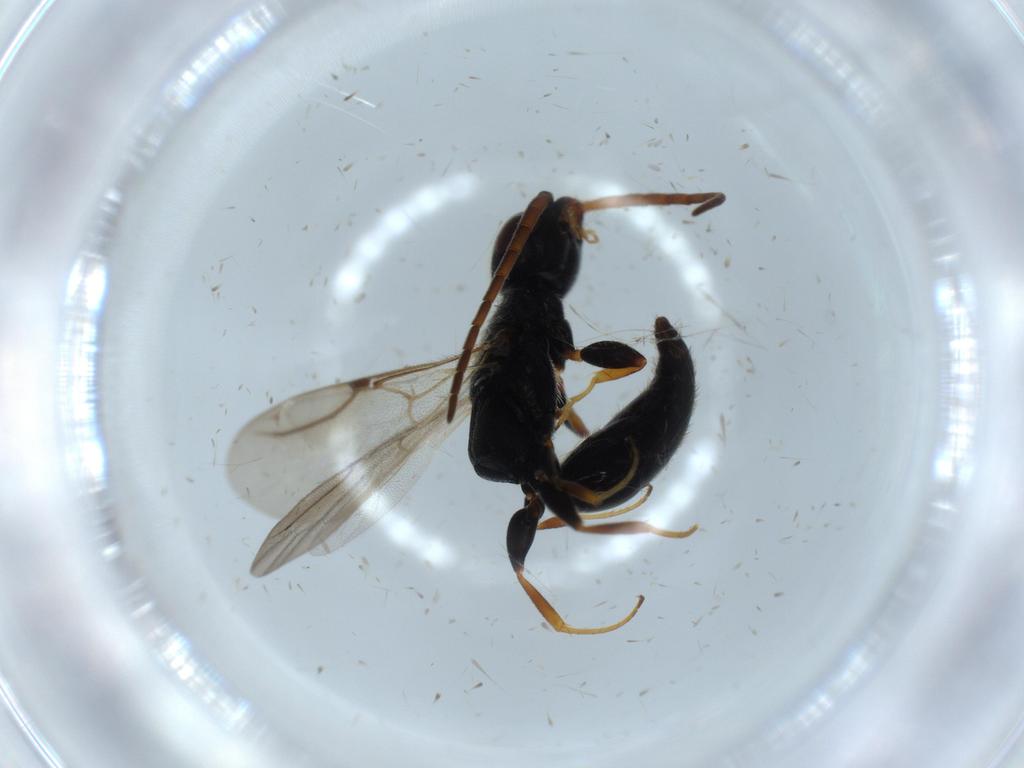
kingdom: Animalia
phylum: Arthropoda
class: Insecta
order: Hymenoptera
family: Bethylidae
